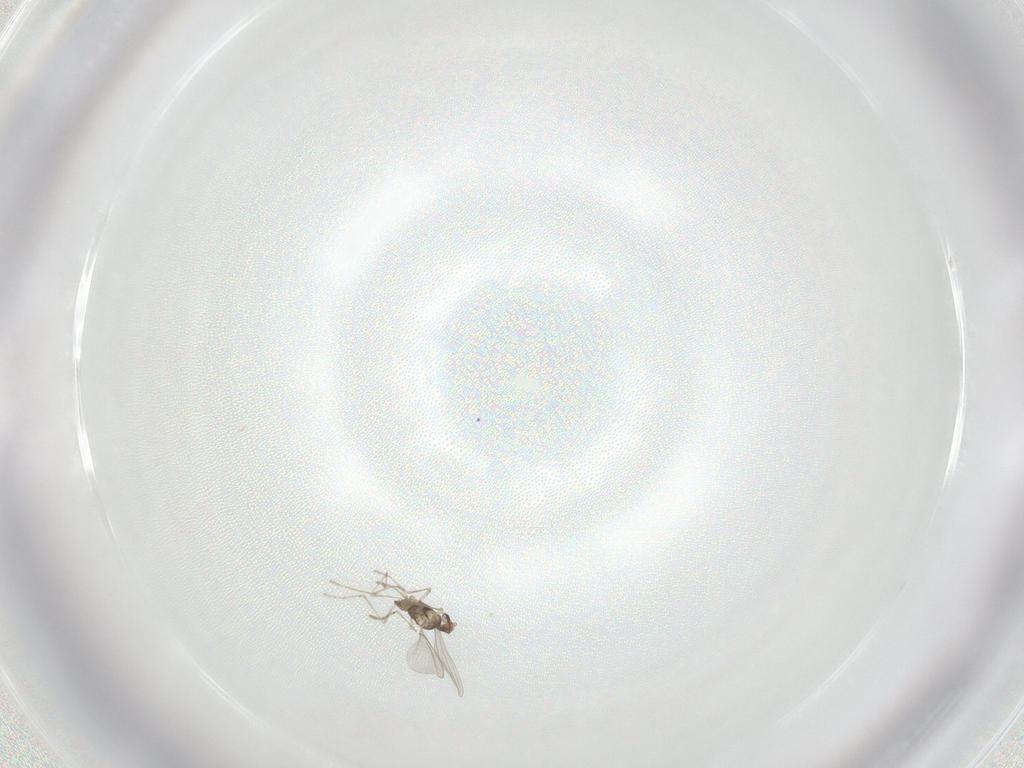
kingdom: Animalia
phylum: Arthropoda
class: Insecta
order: Diptera
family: Cecidomyiidae
